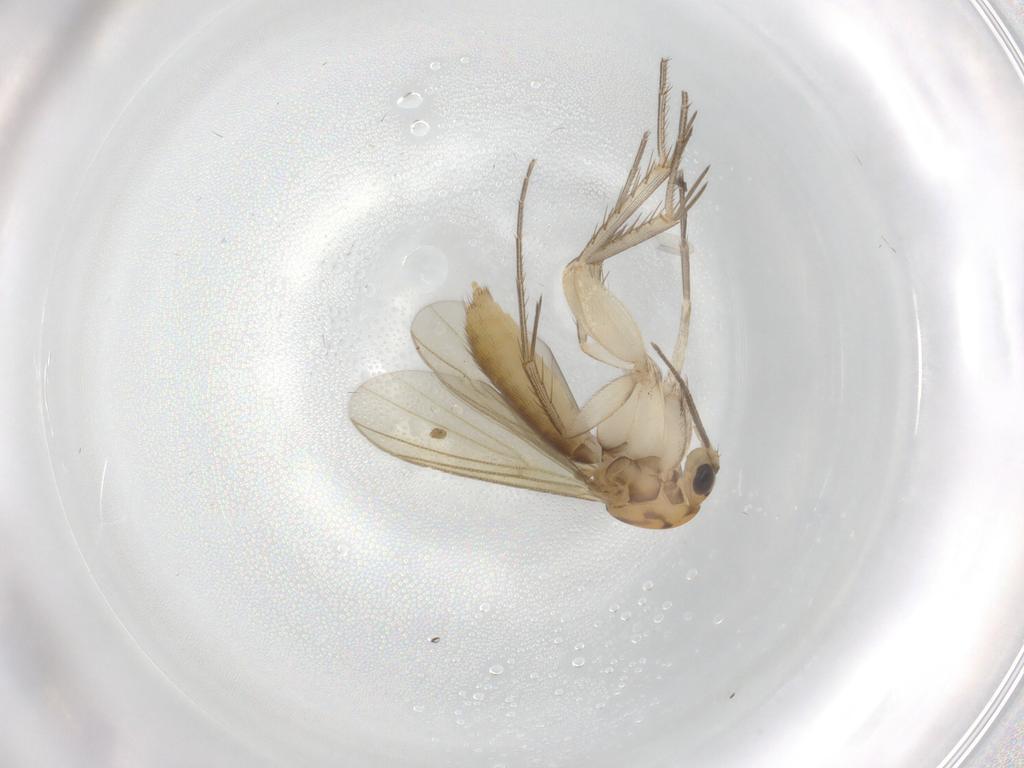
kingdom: Animalia
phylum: Arthropoda
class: Insecta
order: Diptera
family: Mycetophilidae
